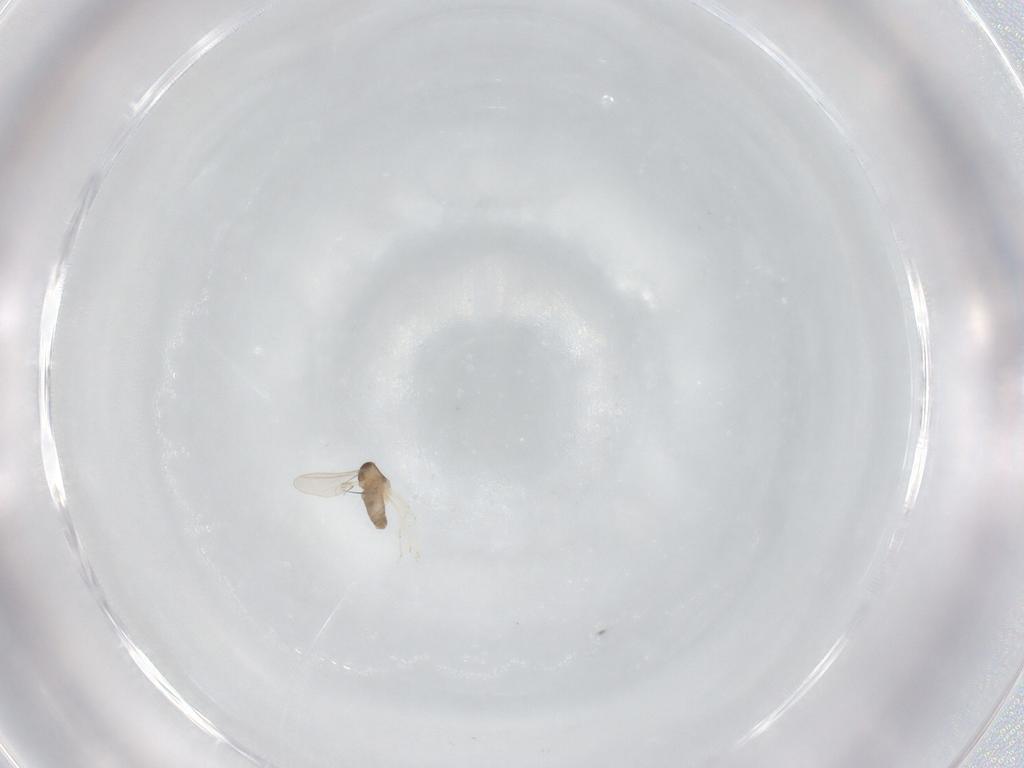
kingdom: Animalia
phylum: Arthropoda
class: Insecta
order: Diptera
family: Cecidomyiidae
